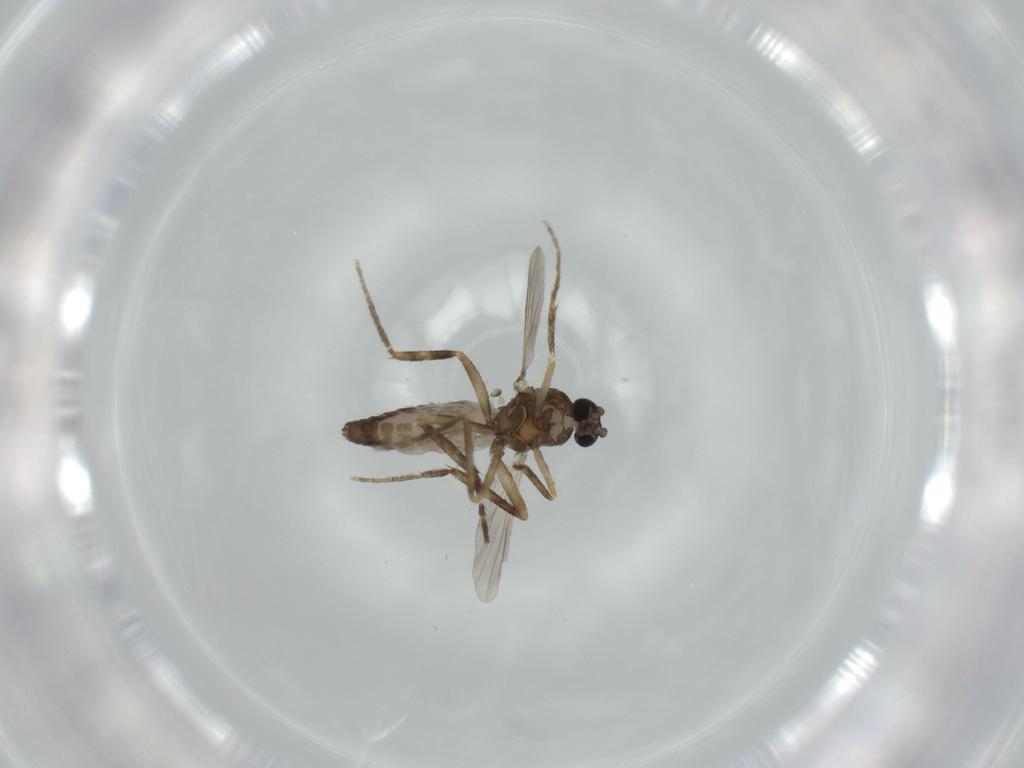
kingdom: Animalia
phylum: Arthropoda
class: Insecta
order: Diptera
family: Ceratopogonidae
